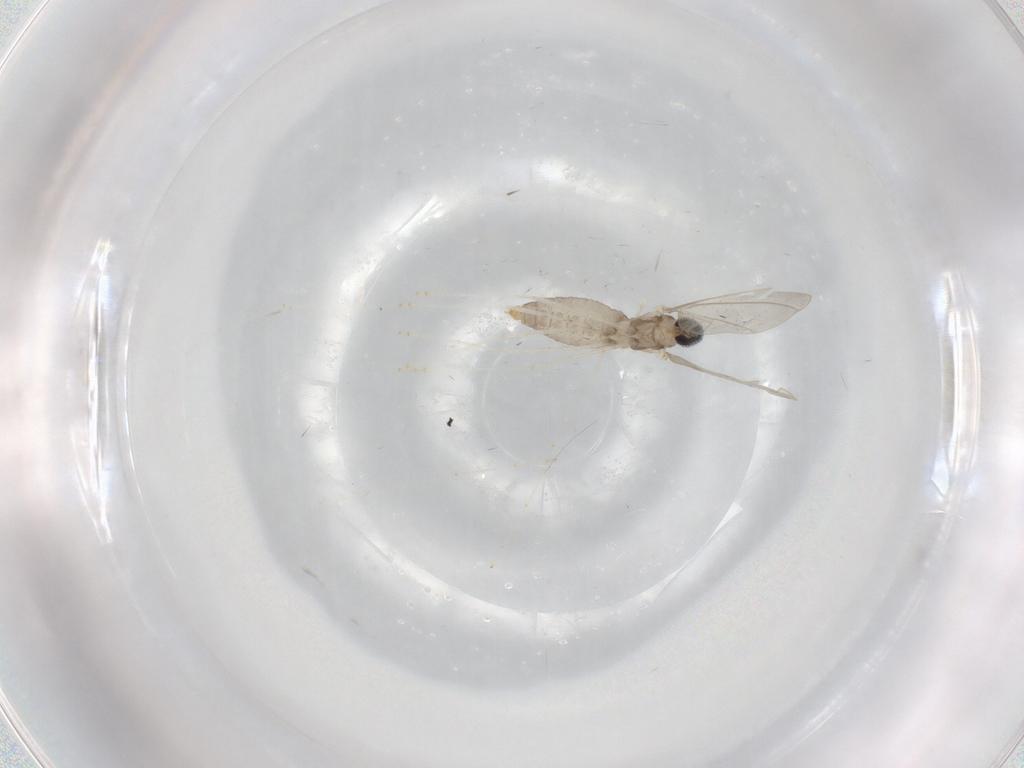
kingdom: Animalia
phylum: Arthropoda
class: Insecta
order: Diptera
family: Cecidomyiidae
